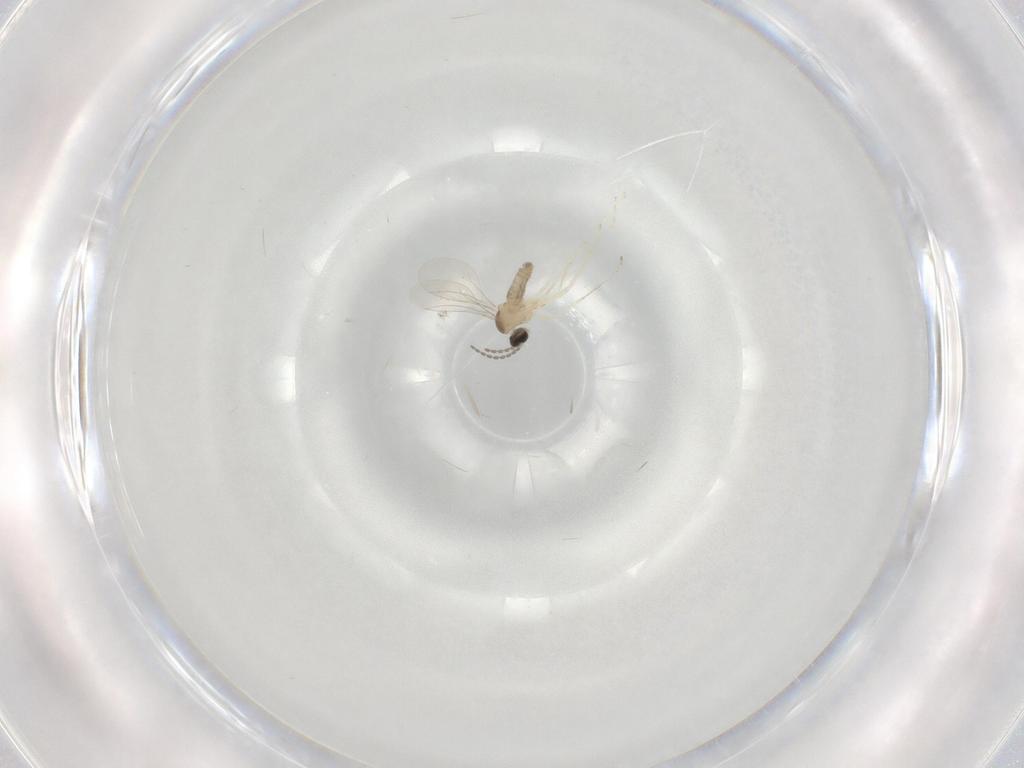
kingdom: Animalia
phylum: Arthropoda
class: Insecta
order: Diptera
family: Cecidomyiidae
